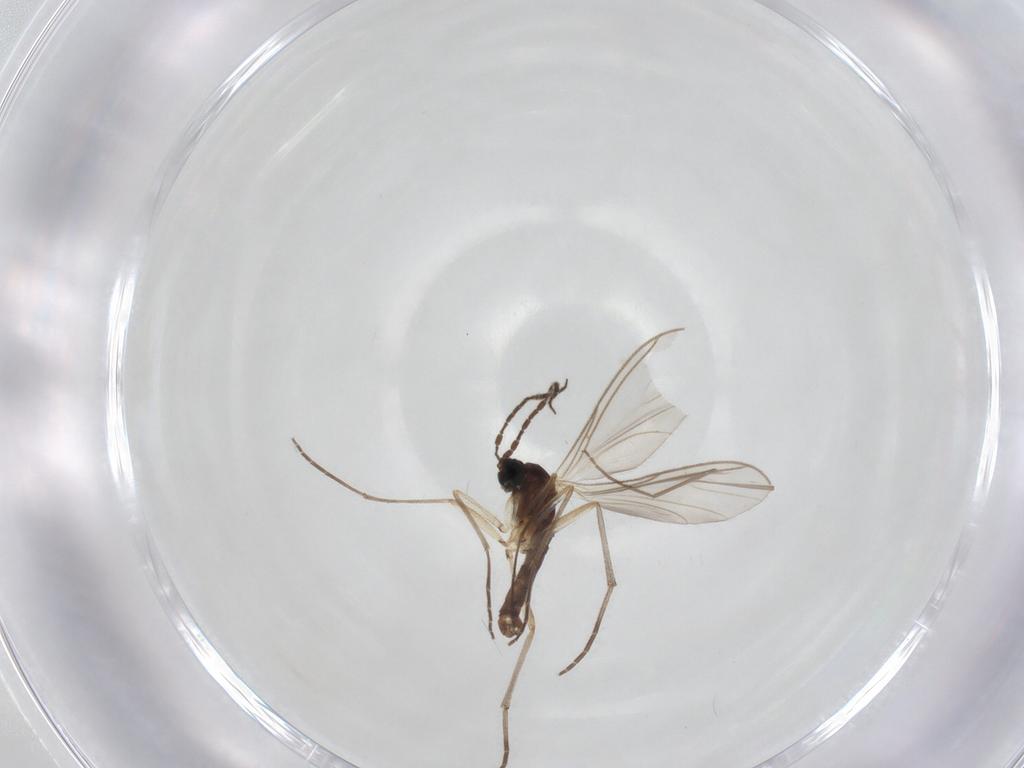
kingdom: Animalia
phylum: Arthropoda
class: Insecta
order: Diptera
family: Sciaridae
